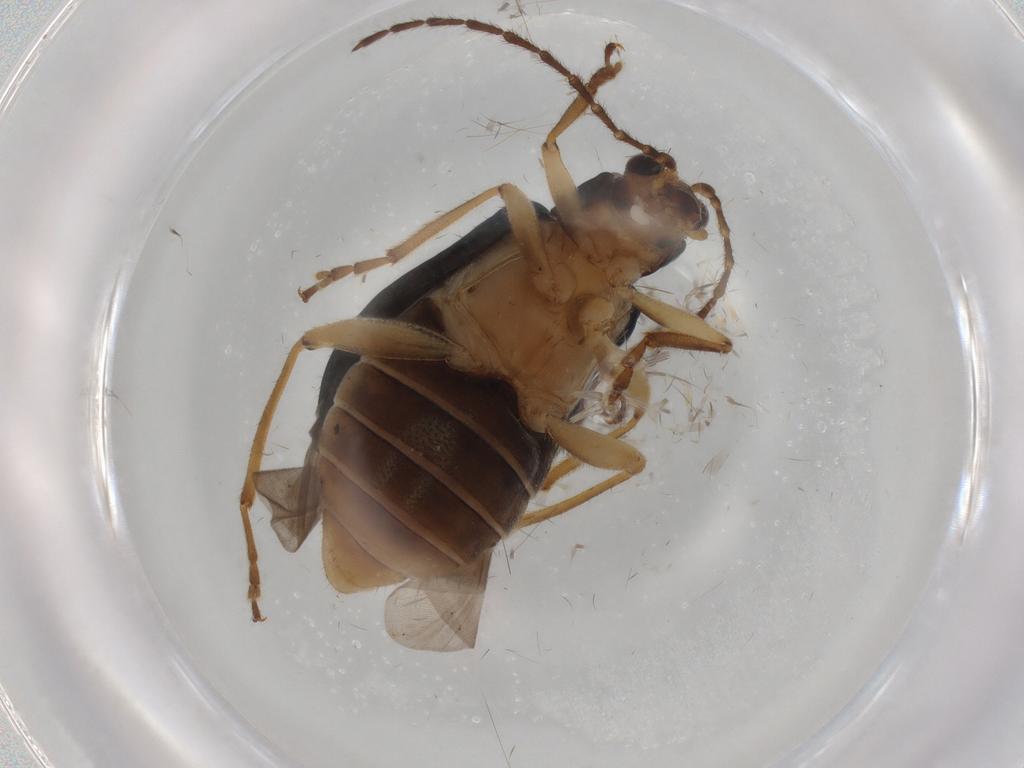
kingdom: Animalia
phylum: Arthropoda
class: Insecta
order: Coleoptera
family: Chrysomelidae
